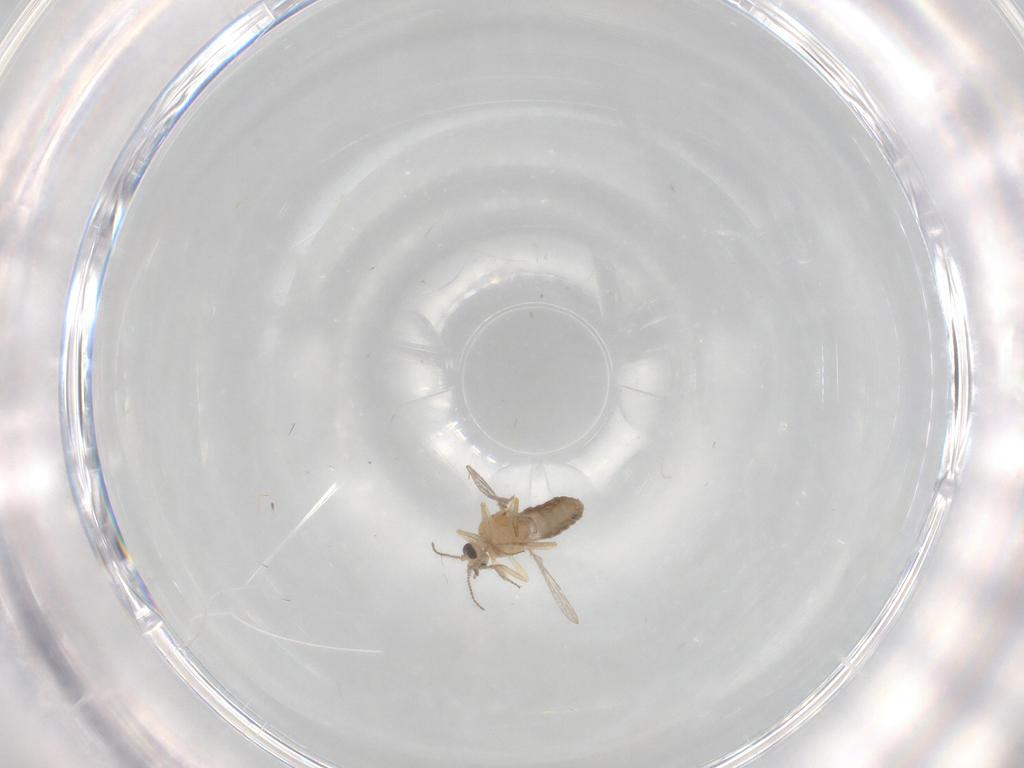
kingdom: Animalia
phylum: Arthropoda
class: Insecta
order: Diptera
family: Ceratopogonidae
